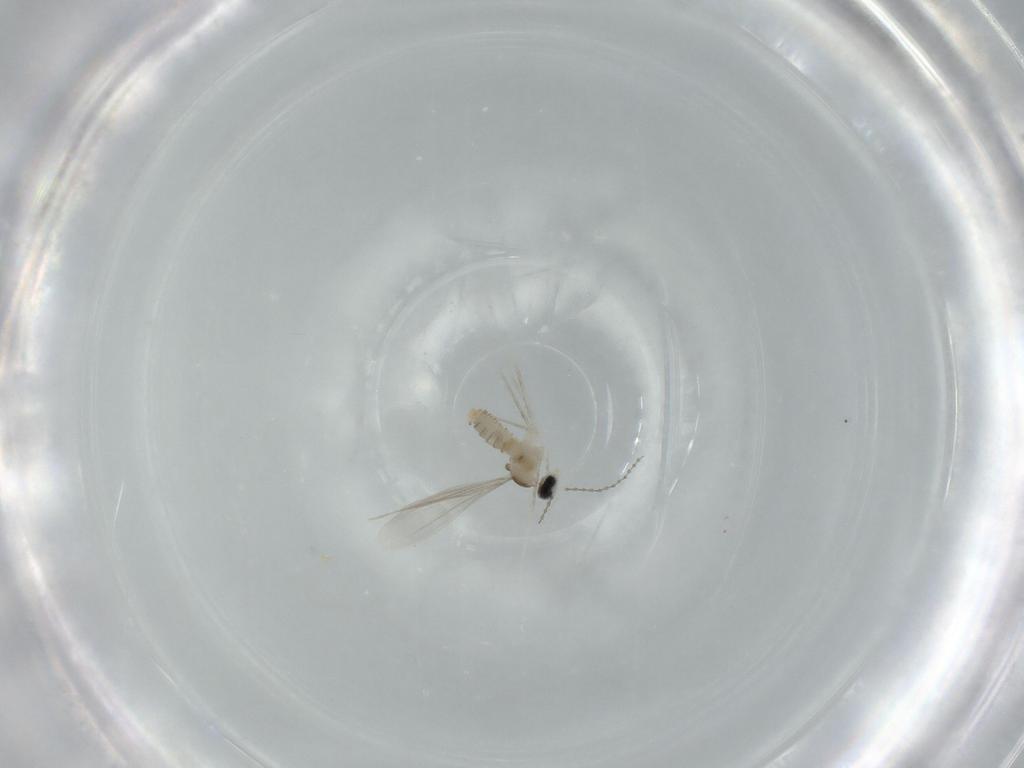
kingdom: Animalia
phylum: Arthropoda
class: Insecta
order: Diptera
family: Cecidomyiidae
